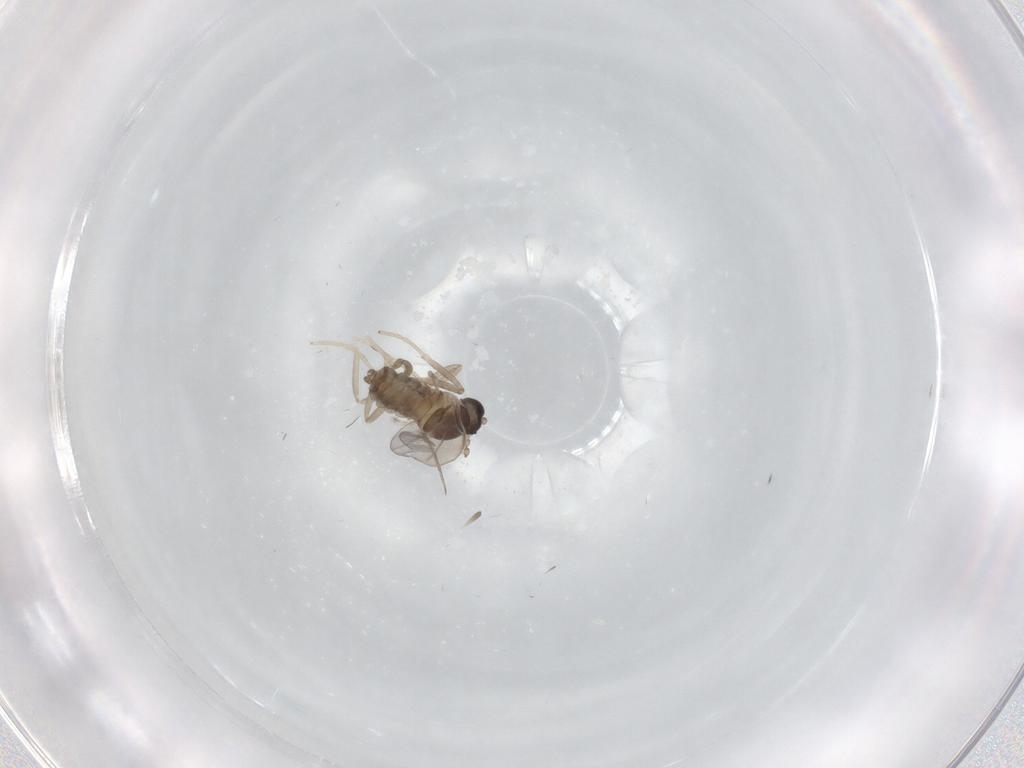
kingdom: Animalia
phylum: Arthropoda
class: Insecta
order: Diptera
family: Cecidomyiidae
